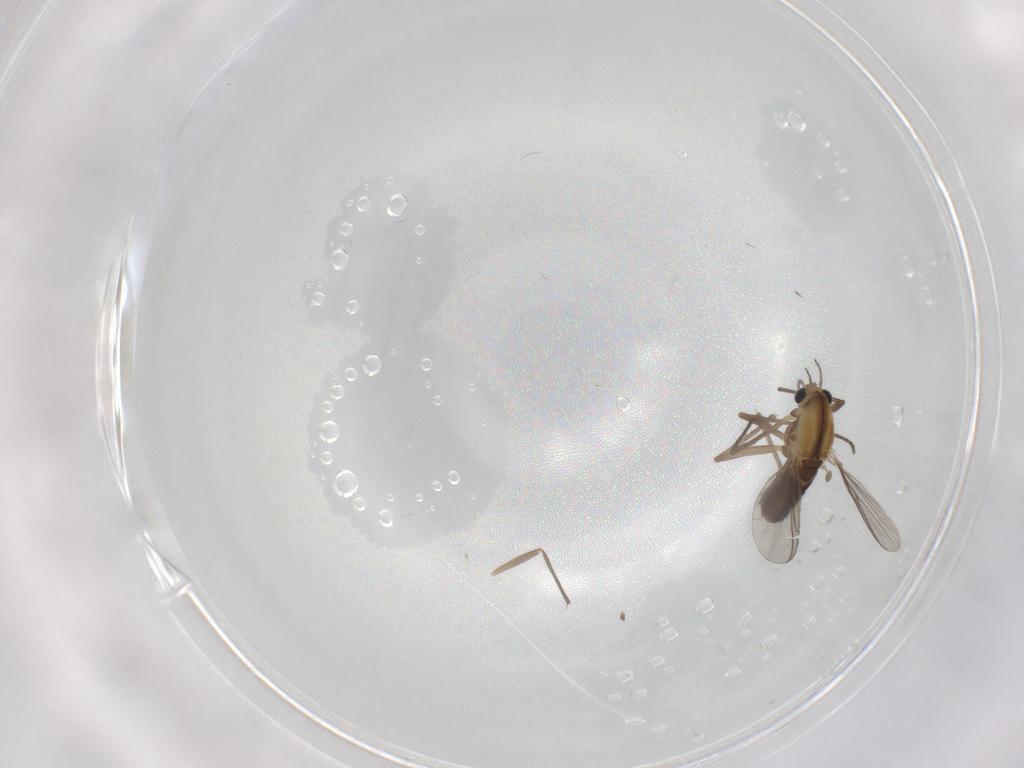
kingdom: Animalia
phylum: Arthropoda
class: Insecta
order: Diptera
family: Chironomidae
